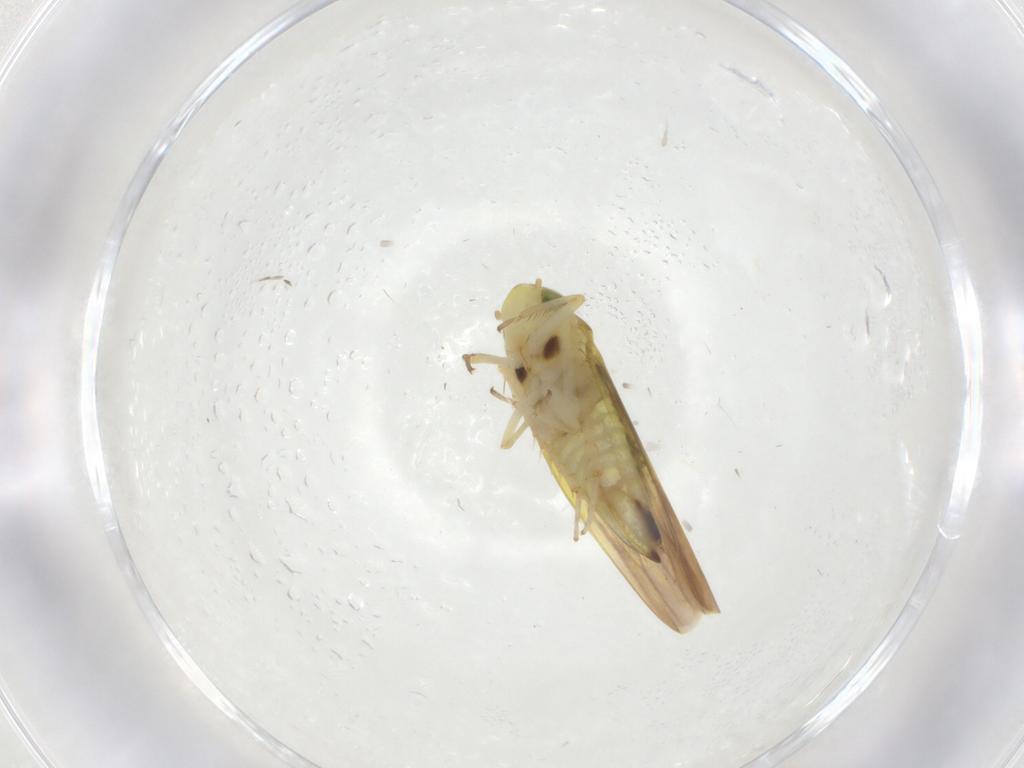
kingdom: Animalia
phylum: Arthropoda
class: Insecta
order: Hemiptera
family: Cicadellidae
